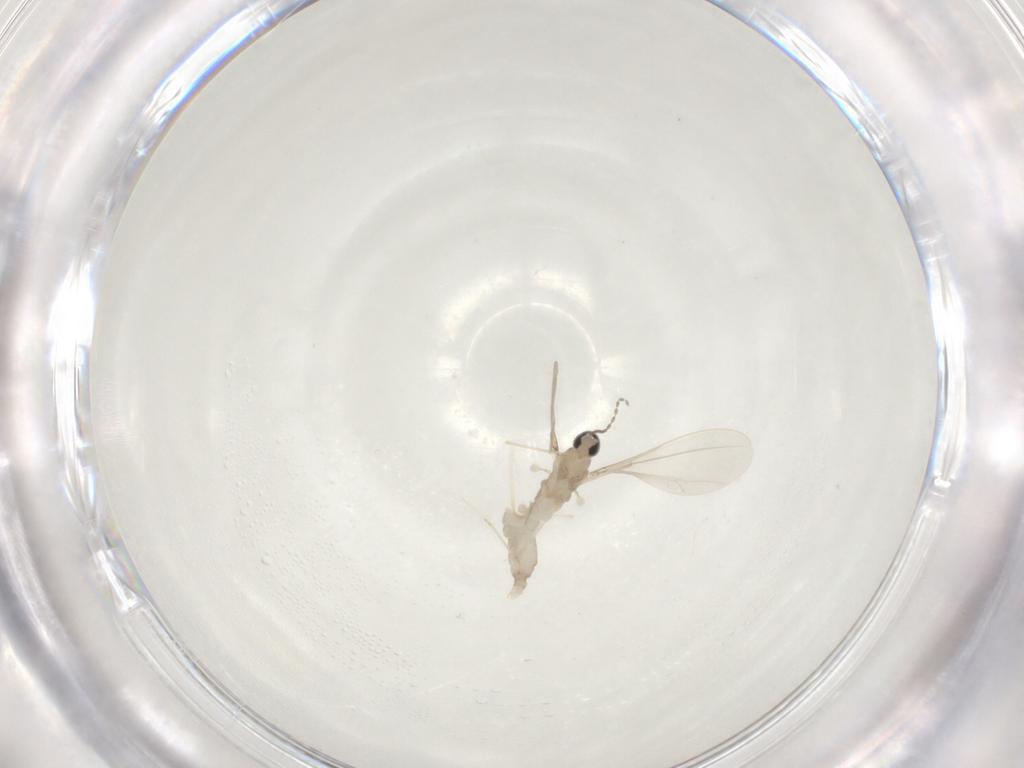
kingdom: Animalia
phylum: Arthropoda
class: Insecta
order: Diptera
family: Cecidomyiidae
